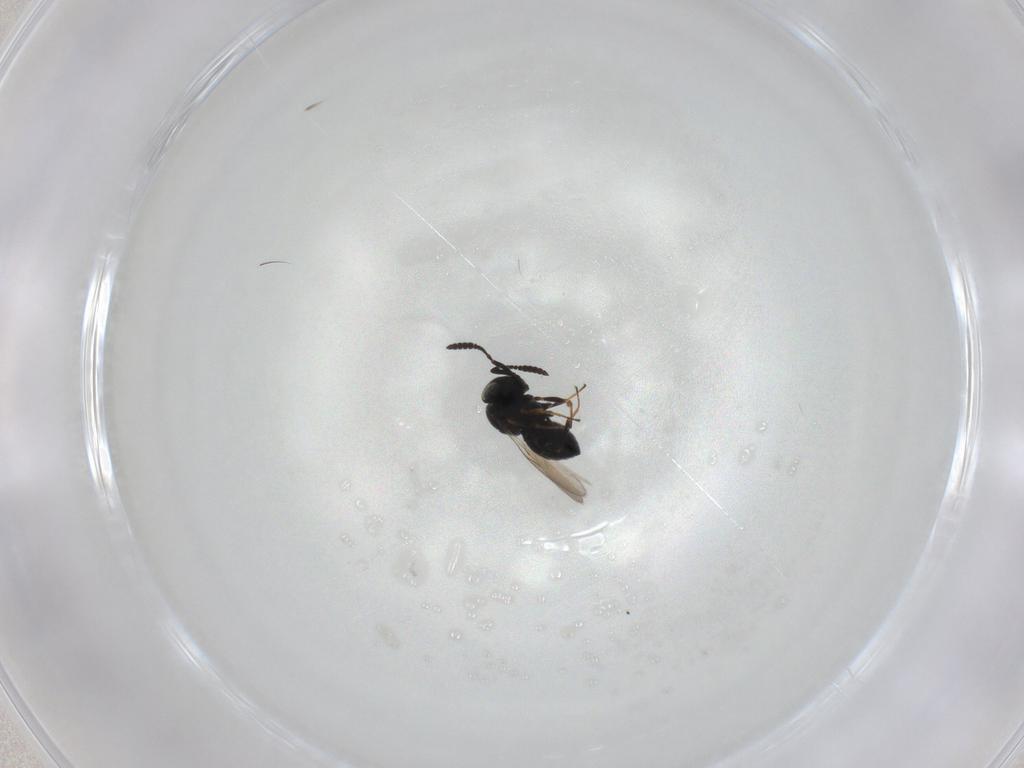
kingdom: Animalia
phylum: Arthropoda
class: Insecta
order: Hymenoptera
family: Scelionidae
